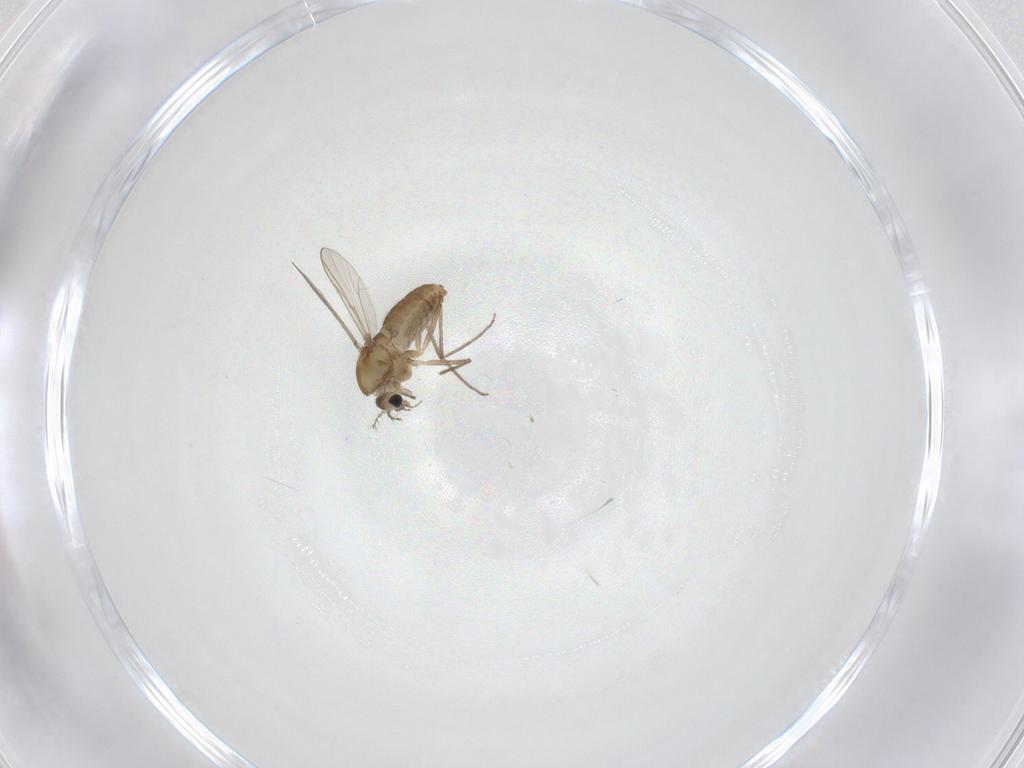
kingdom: Animalia
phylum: Arthropoda
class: Insecta
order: Diptera
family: Chironomidae
